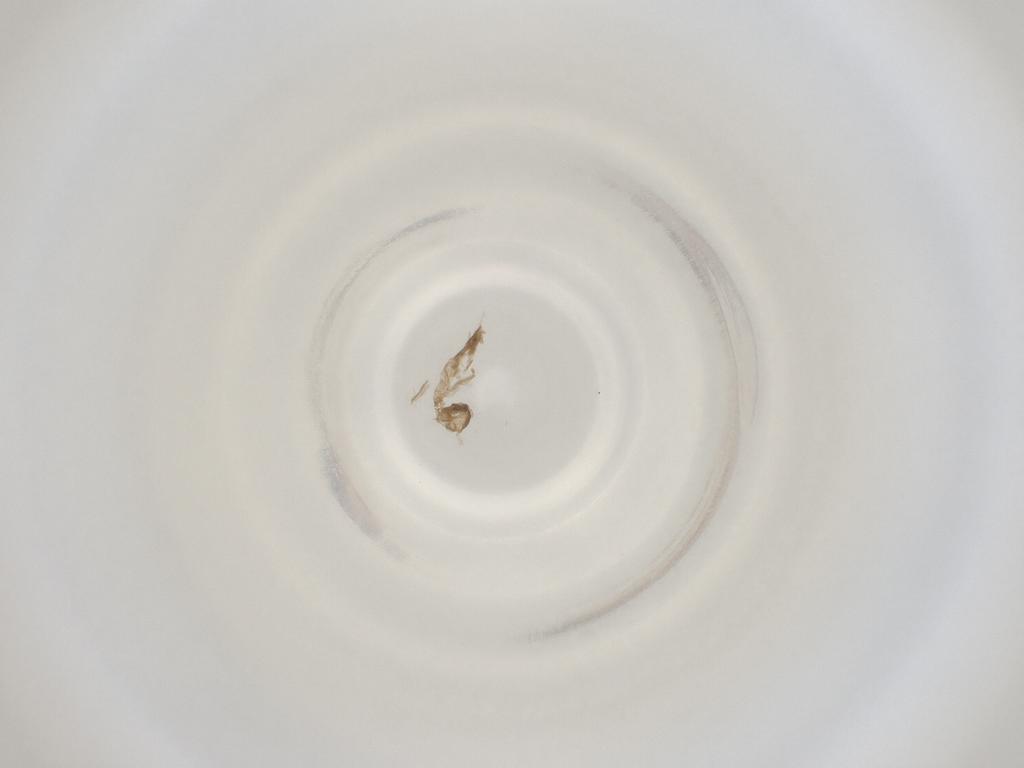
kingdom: Animalia
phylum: Arthropoda
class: Insecta
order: Diptera
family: Cecidomyiidae
